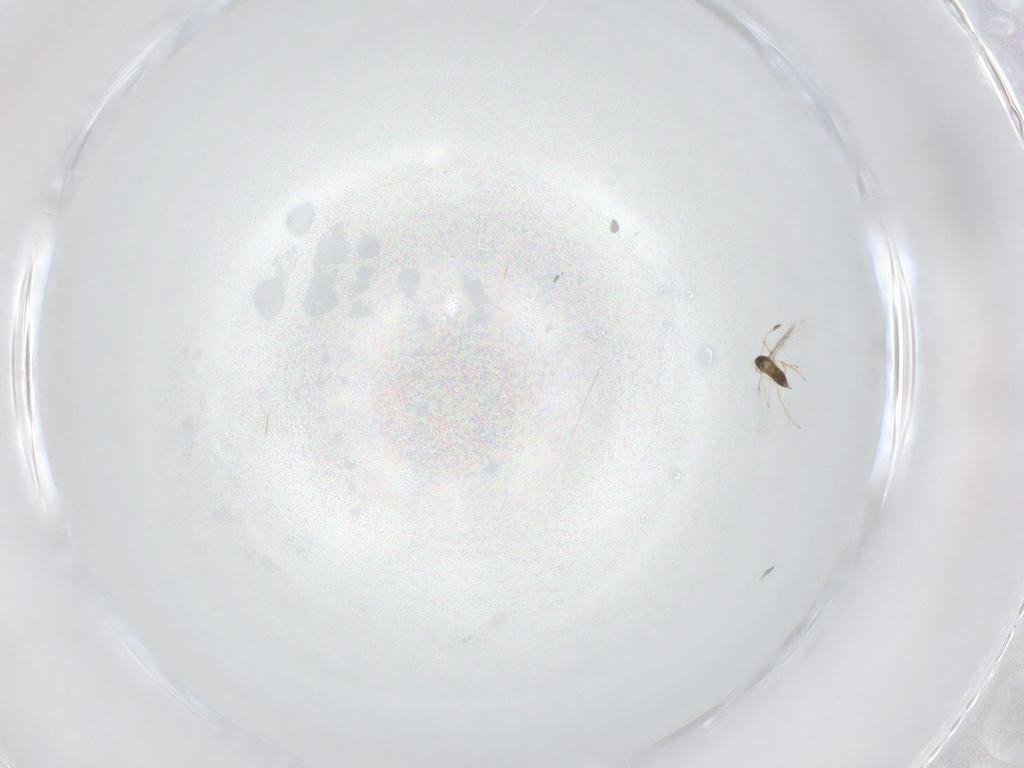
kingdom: Animalia
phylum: Arthropoda
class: Insecta
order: Hymenoptera
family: Mymaridae
